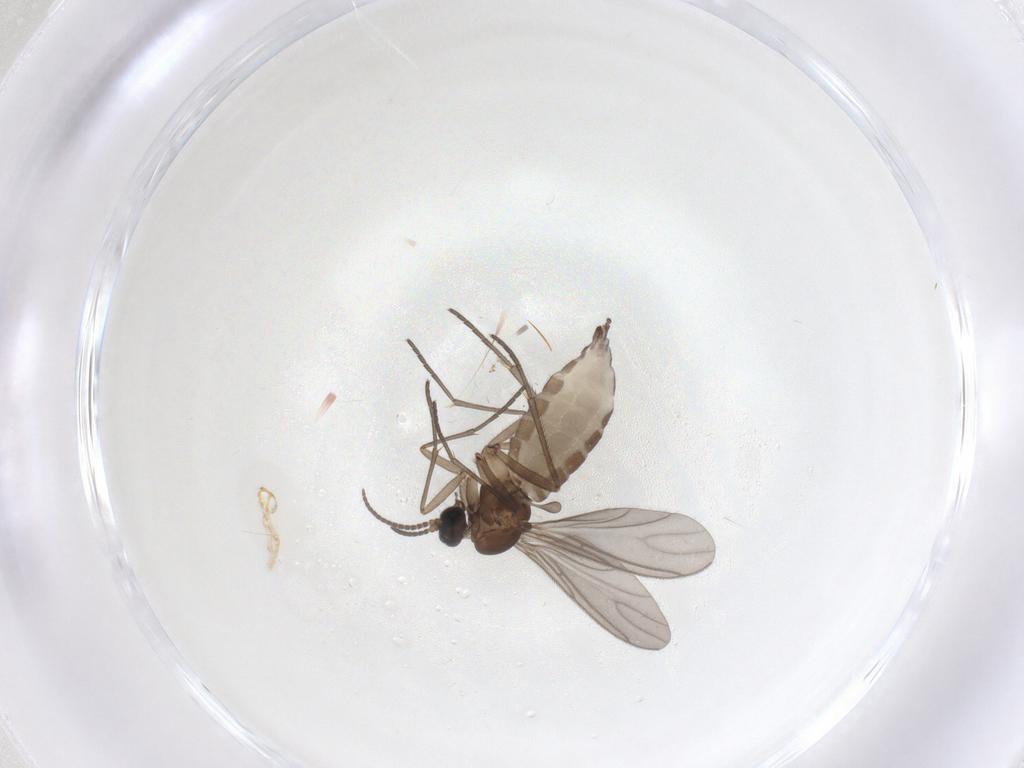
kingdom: Animalia
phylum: Arthropoda
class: Insecta
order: Diptera
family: Sciaridae
